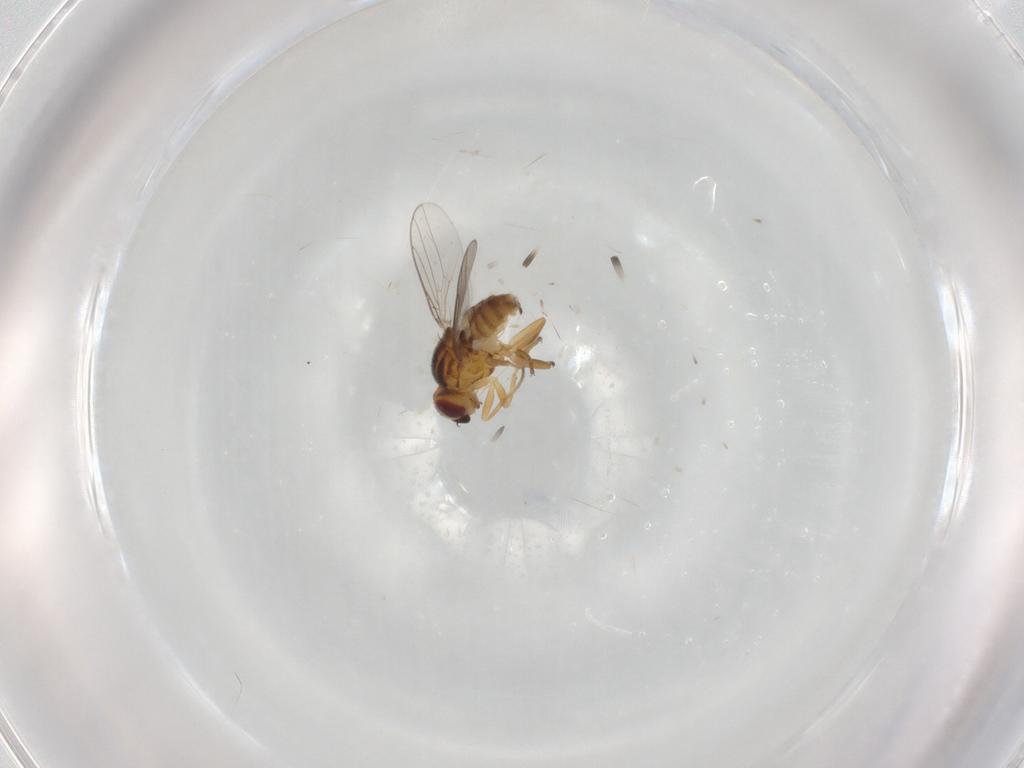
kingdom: Animalia
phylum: Arthropoda
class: Insecta
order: Diptera
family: Chloropidae
